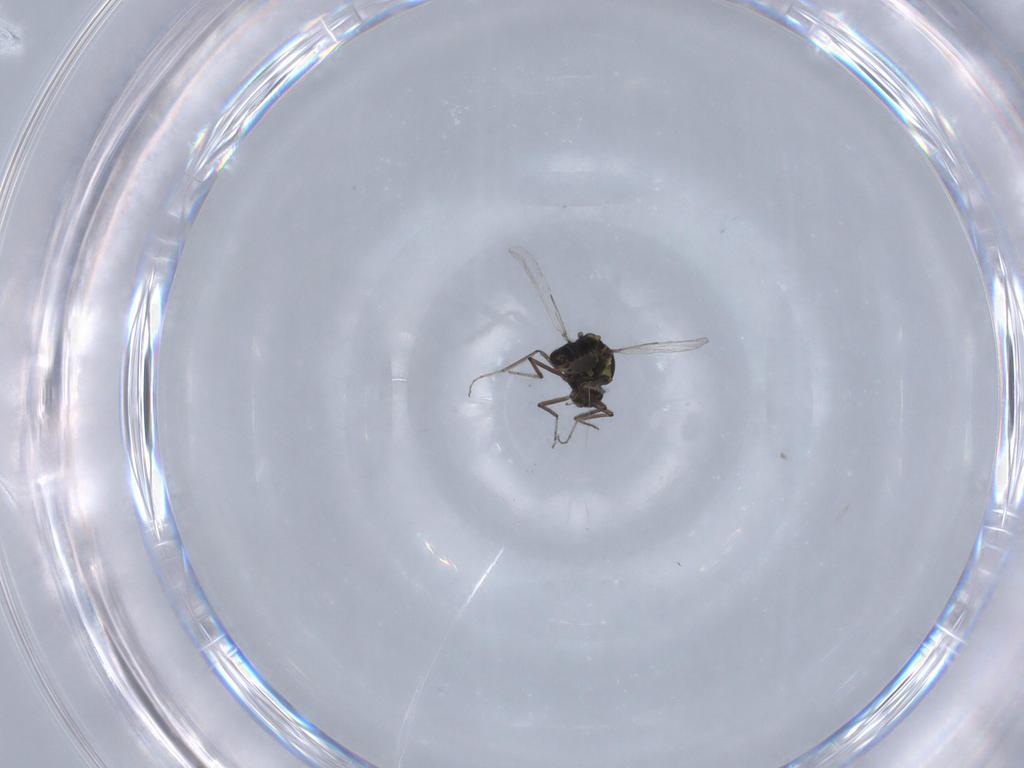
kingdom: Animalia
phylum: Arthropoda
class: Insecta
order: Diptera
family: Ceratopogonidae
